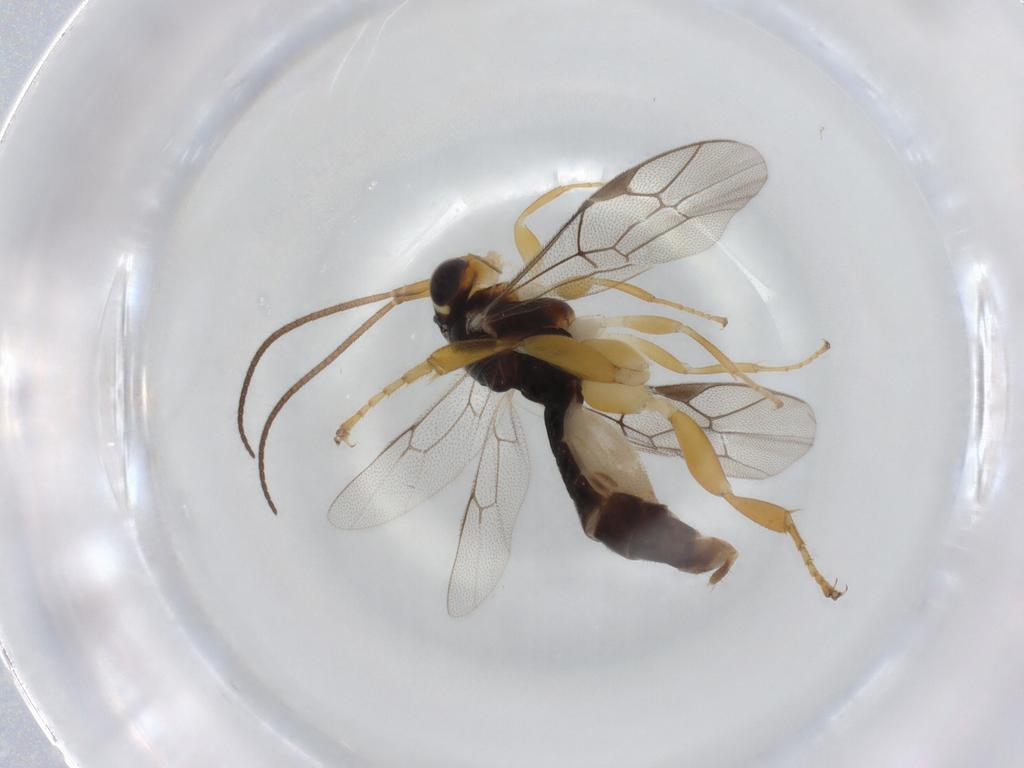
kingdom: Animalia
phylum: Arthropoda
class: Insecta
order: Hymenoptera
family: Ichneumonidae
